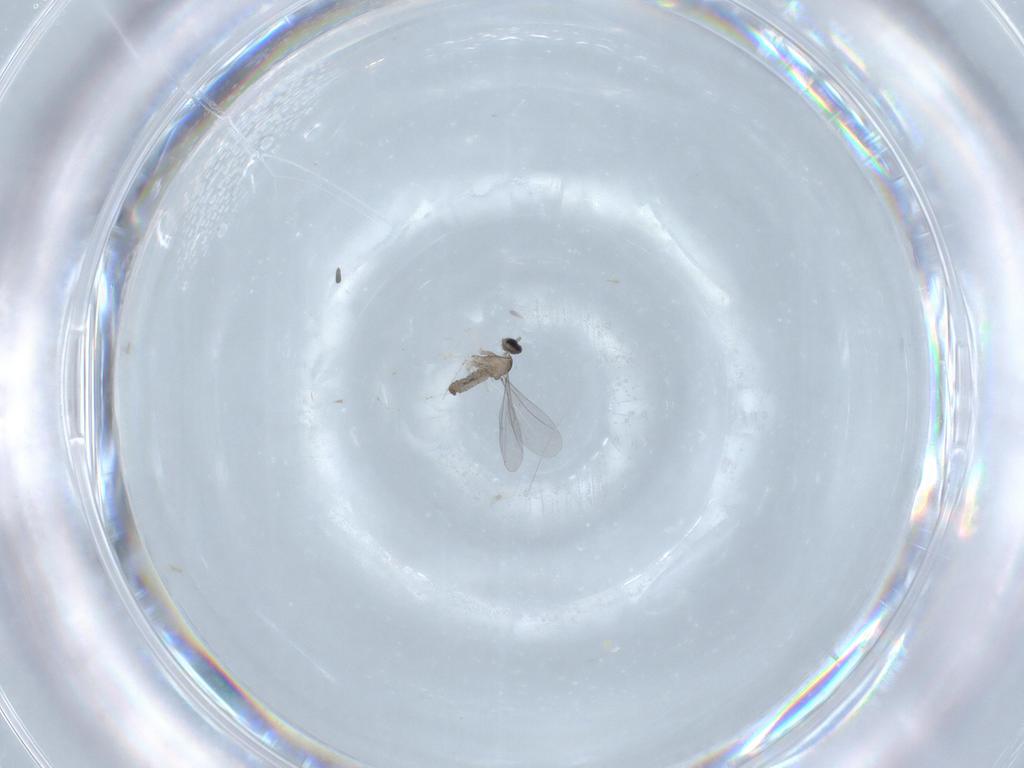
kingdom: Animalia
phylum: Arthropoda
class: Insecta
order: Diptera
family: Cecidomyiidae
